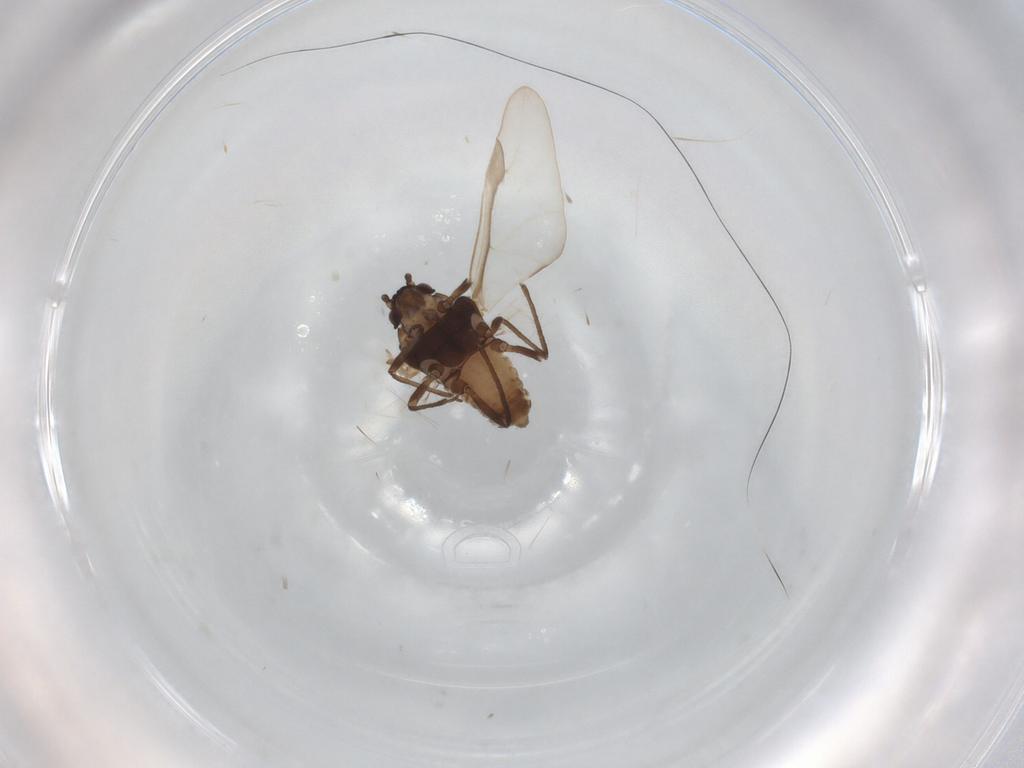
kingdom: Animalia
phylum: Arthropoda
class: Insecta
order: Hemiptera
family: Aphididae
